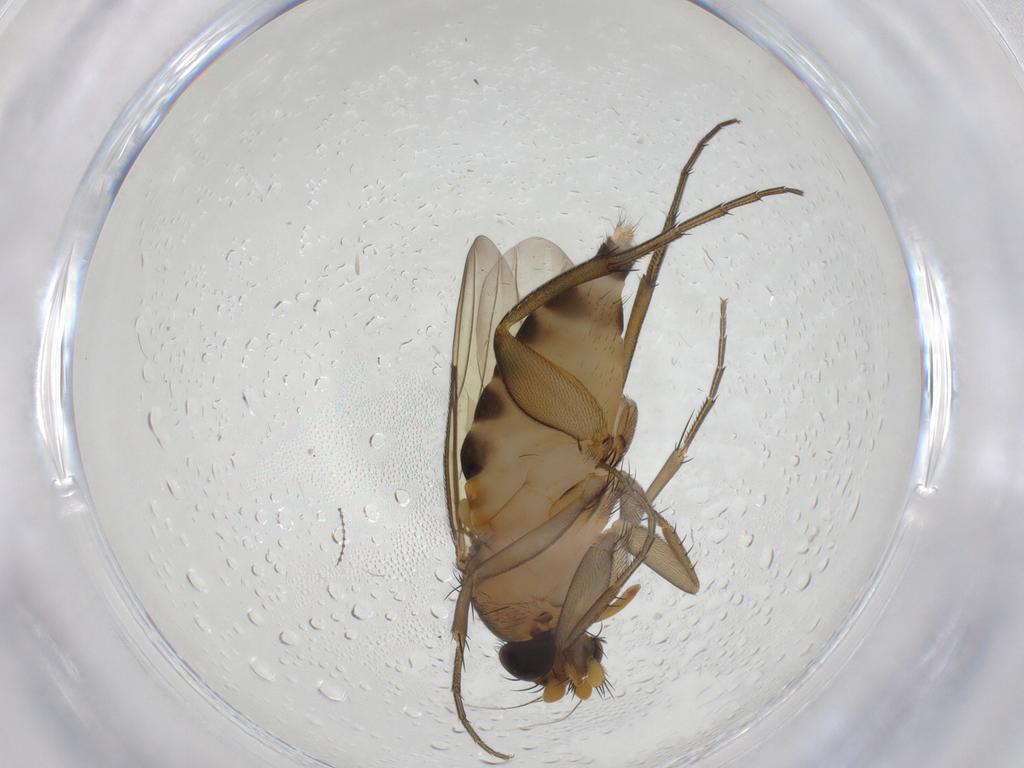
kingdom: Animalia
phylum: Arthropoda
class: Insecta
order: Diptera
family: Phoridae
